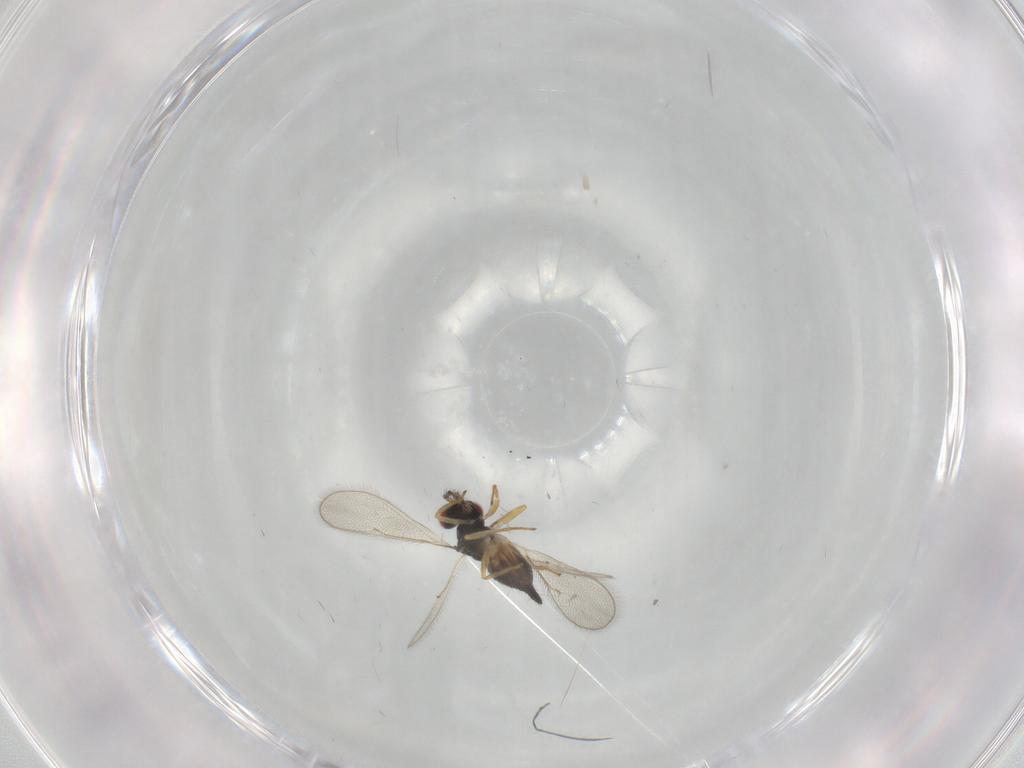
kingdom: Animalia
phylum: Arthropoda
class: Insecta
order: Hymenoptera
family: Eulophidae
